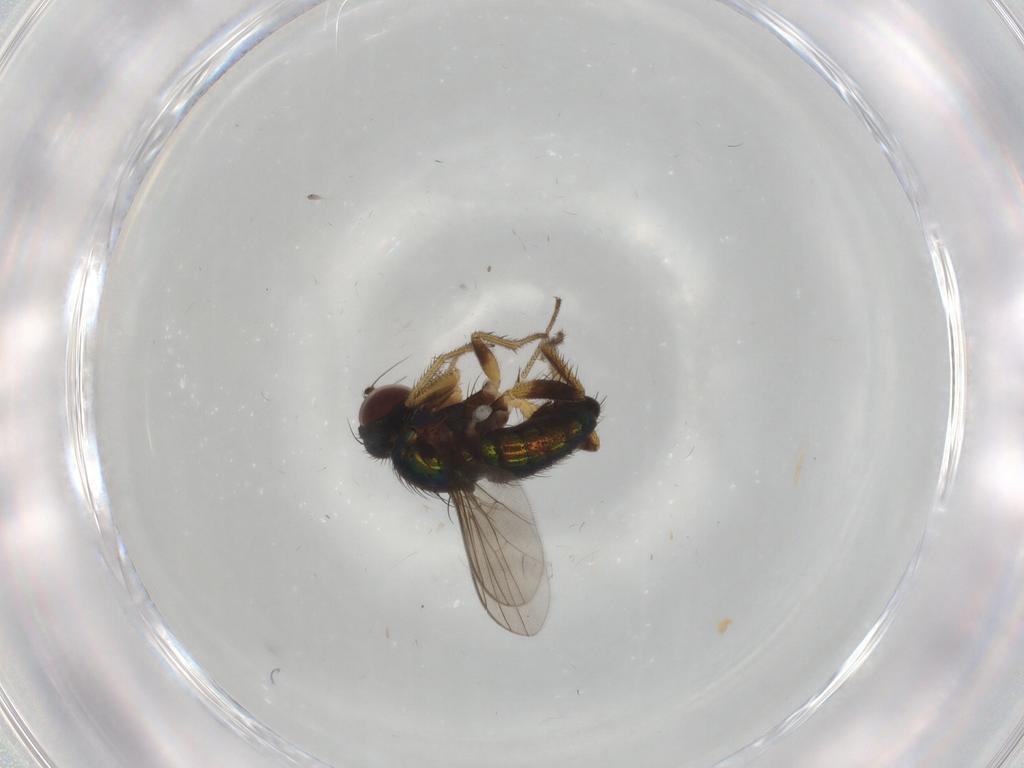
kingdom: Animalia
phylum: Arthropoda
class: Insecta
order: Diptera
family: Dolichopodidae
